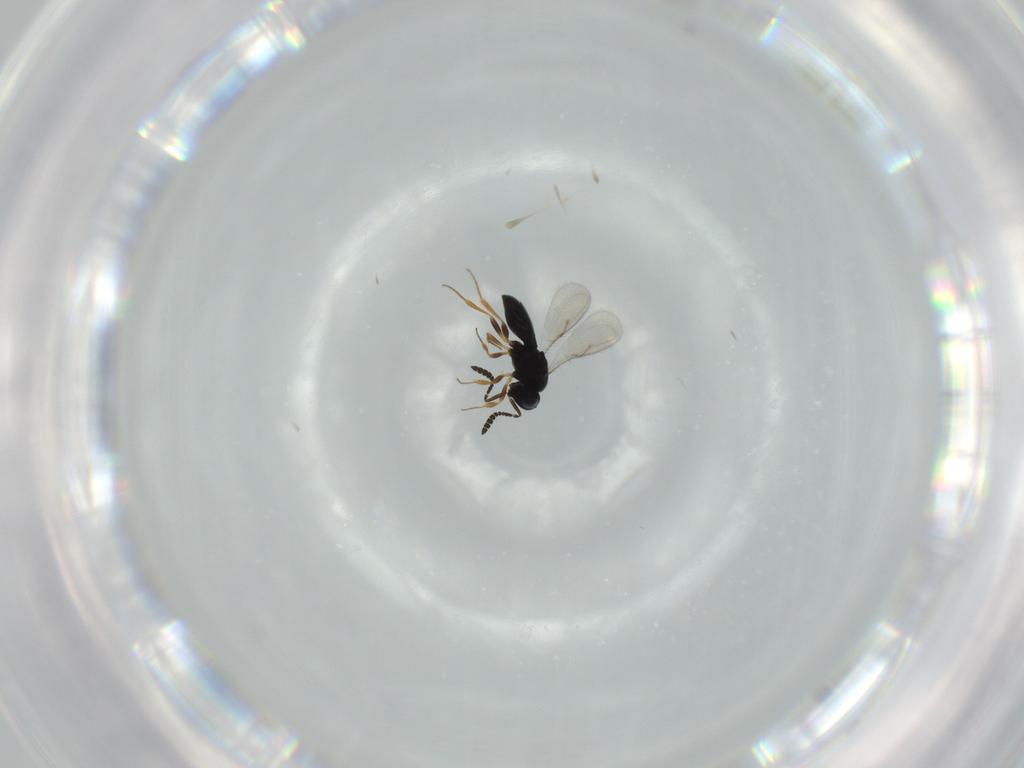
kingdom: Animalia
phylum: Arthropoda
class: Insecta
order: Hymenoptera
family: Scelionidae
